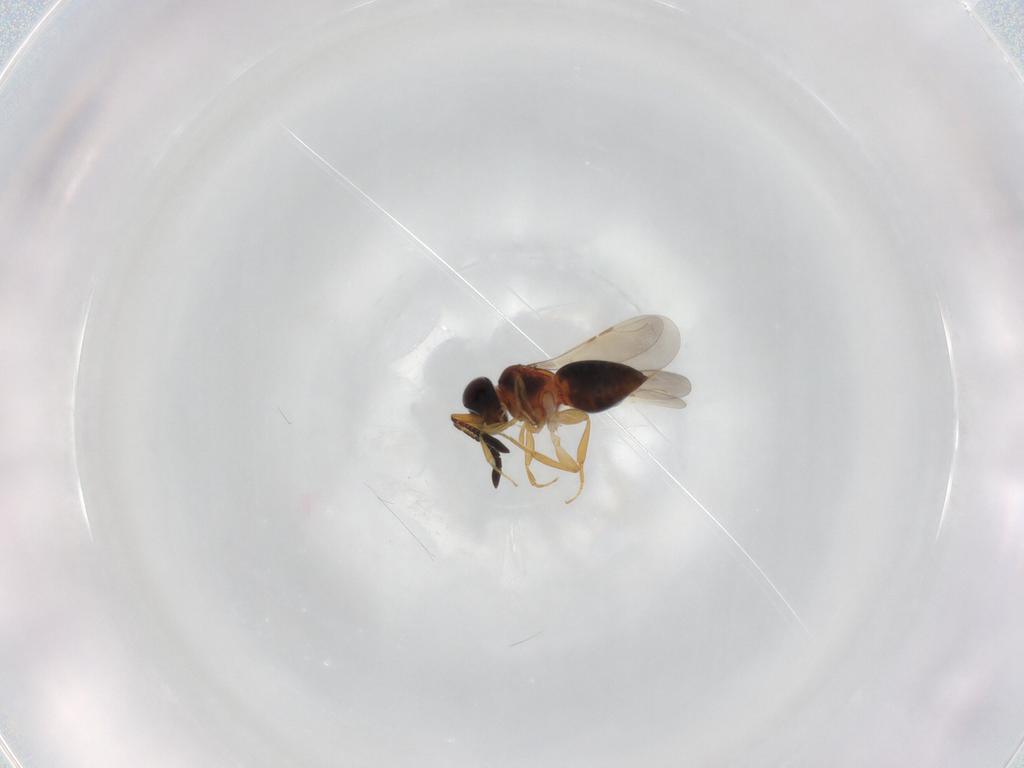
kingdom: Animalia
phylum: Arthropoda
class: Insecta
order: Hymenoptera
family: Ceraphronidae
